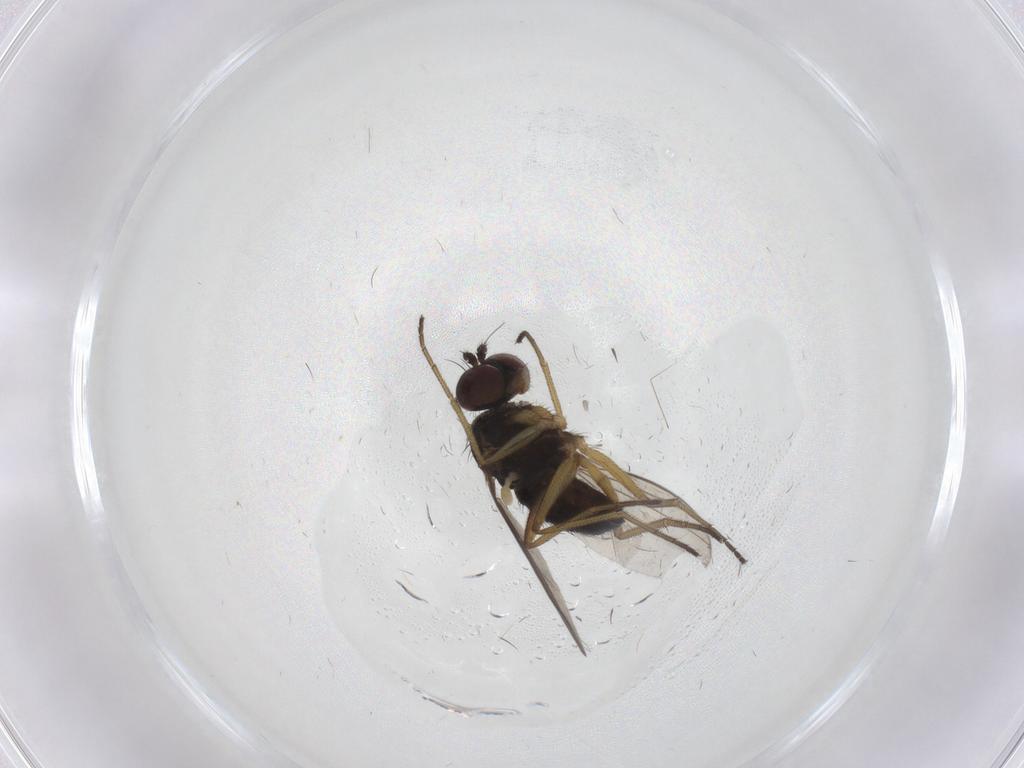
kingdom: Animalia
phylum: Arthropoda
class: Insecta
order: Diptera
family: Dolichopodidae
